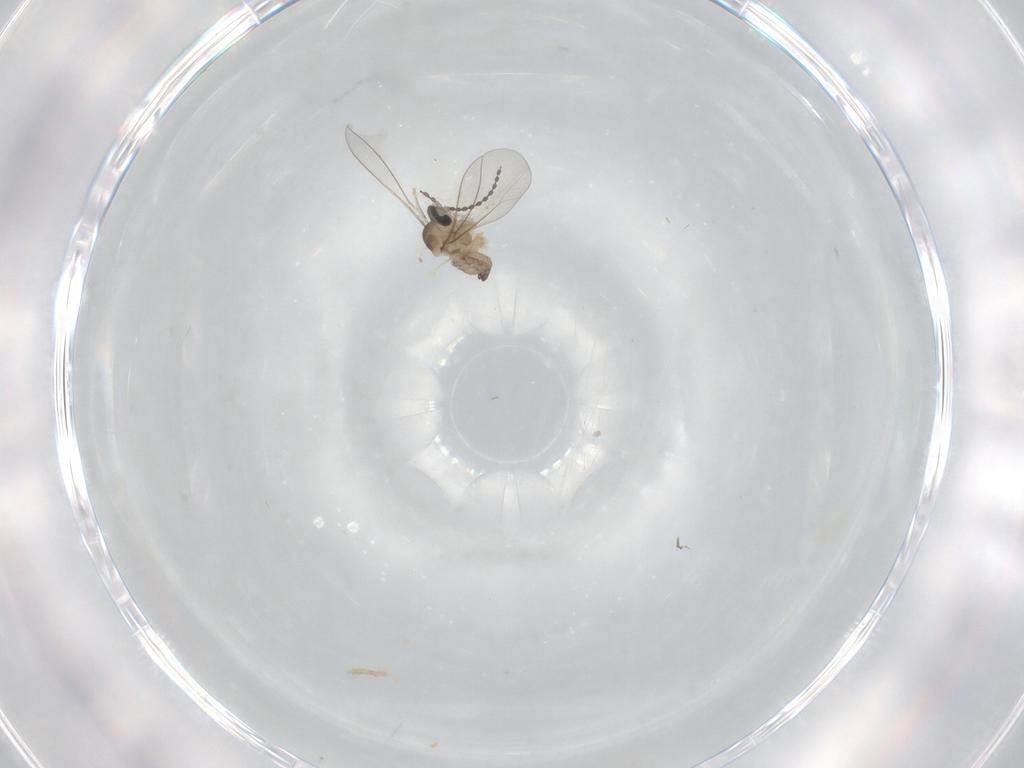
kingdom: Animalia
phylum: Arthropoda
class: Insecta
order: Diptera
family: Cecidomyiidae
